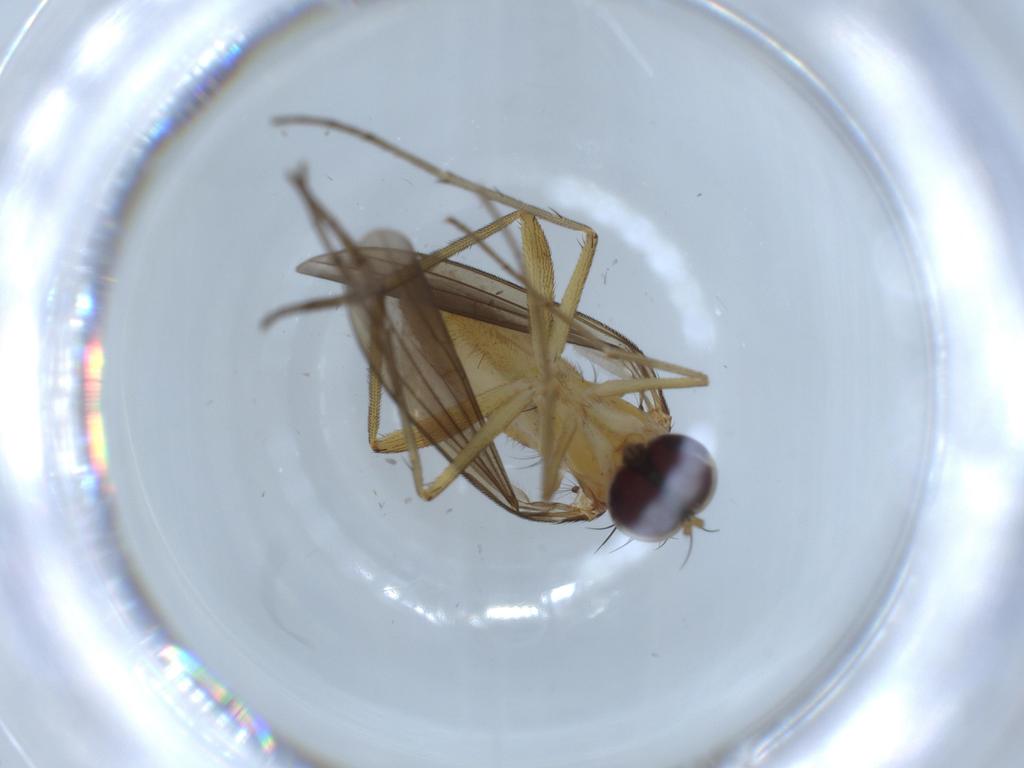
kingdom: Animalia
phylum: Arthropoda
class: Insecta
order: Diptera
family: Dolichopodidae
